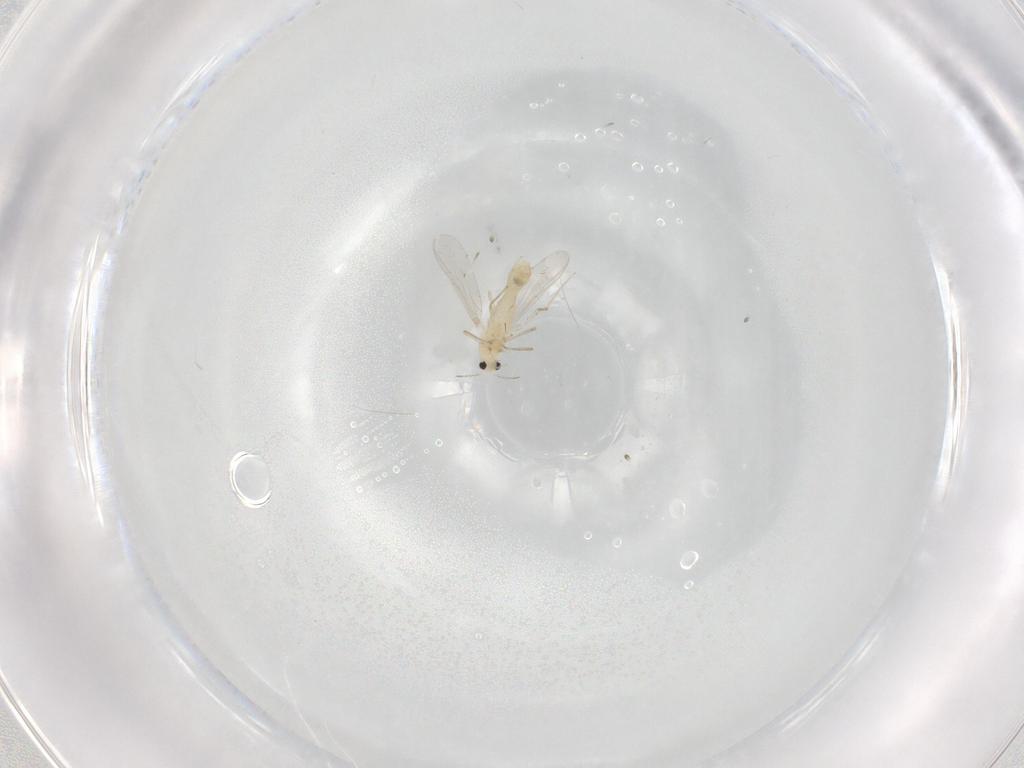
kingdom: Animalia
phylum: Arthropoda
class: Insecta
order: Diptera
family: Chironomidae
